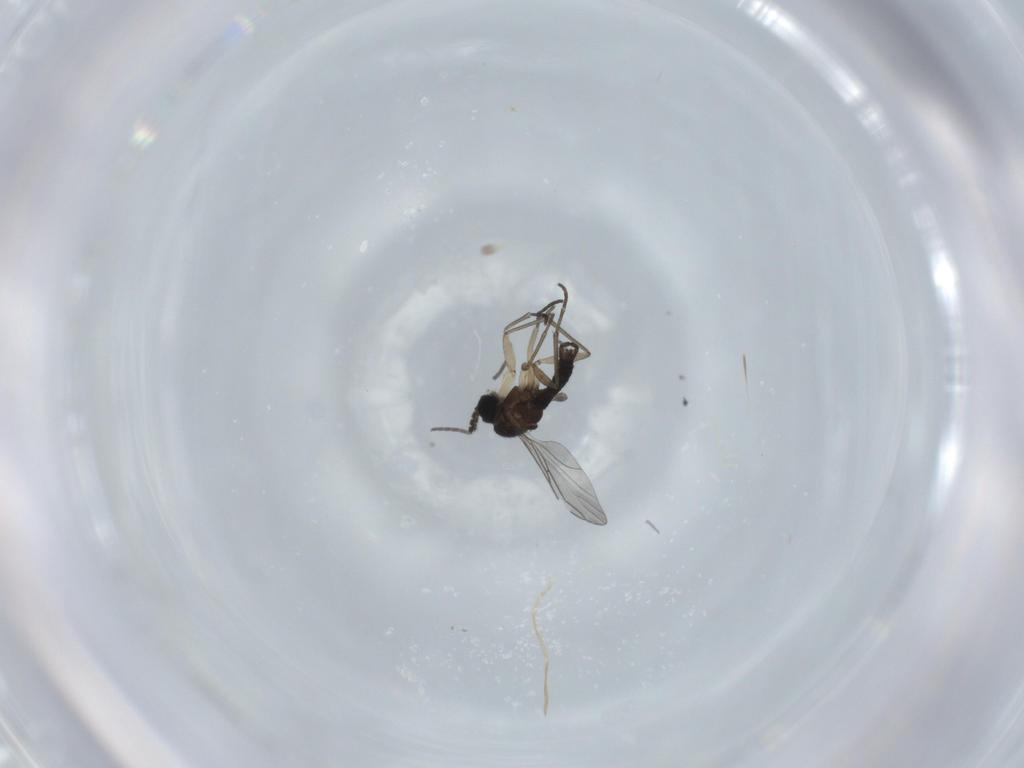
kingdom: Animalia
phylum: Arthropoda
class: Insecta
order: Diptera
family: Sciaridae
